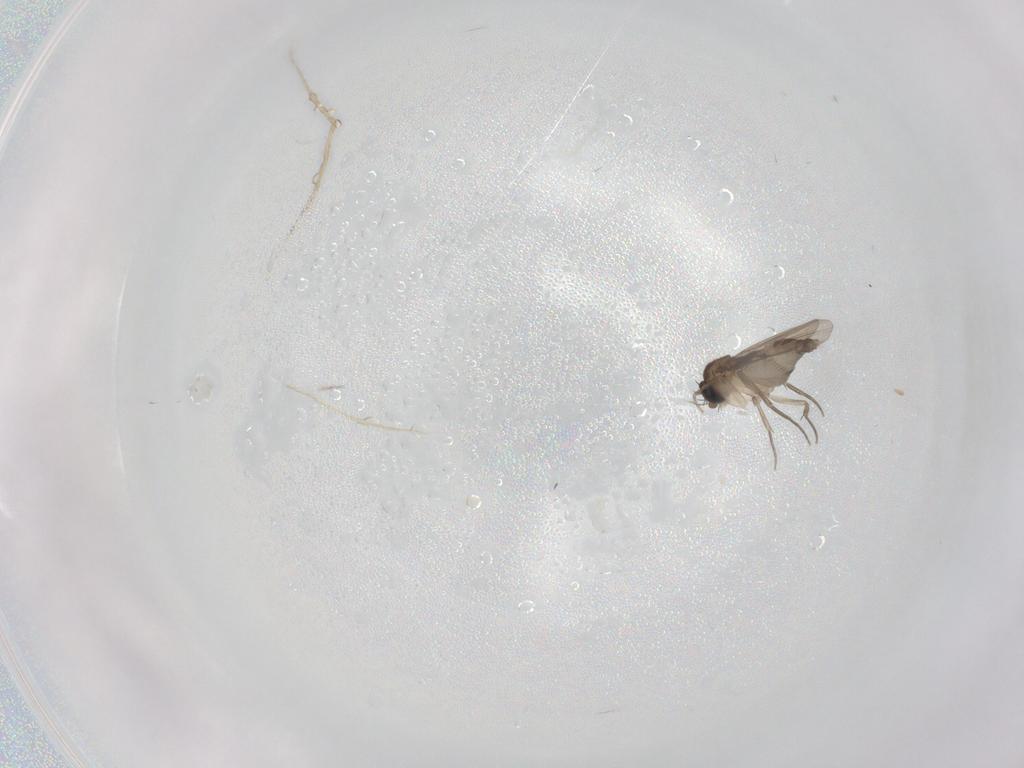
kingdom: Animalia
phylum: Arthropoda
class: Insecta
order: Diptera
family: Phoridae
